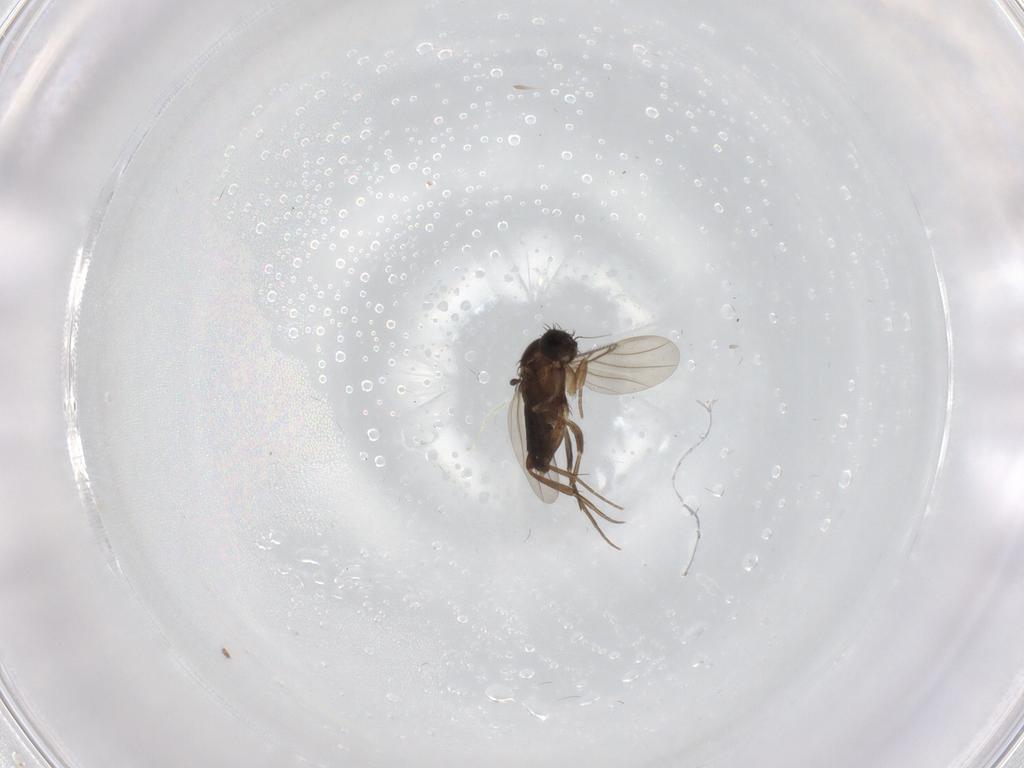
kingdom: Animalia
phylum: Arthropoda
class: Insecta
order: Diptera
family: Phoridae
